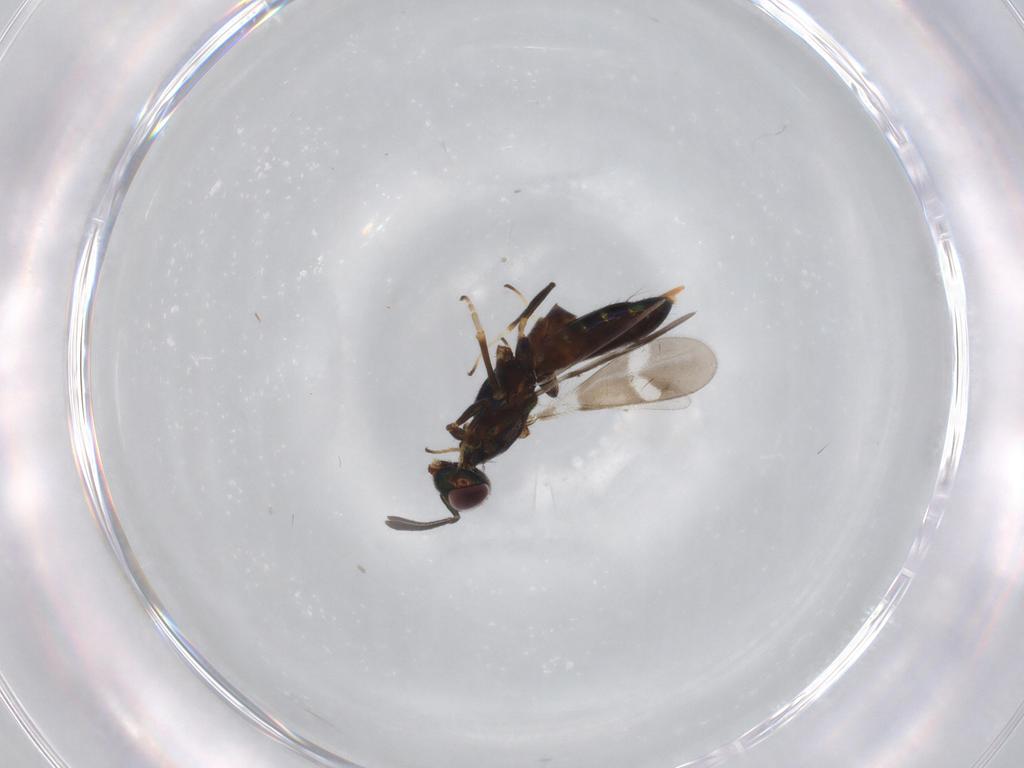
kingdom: Animalia
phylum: Arthropoda
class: Insecta
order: Hymenoptera
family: Eupelmidae
